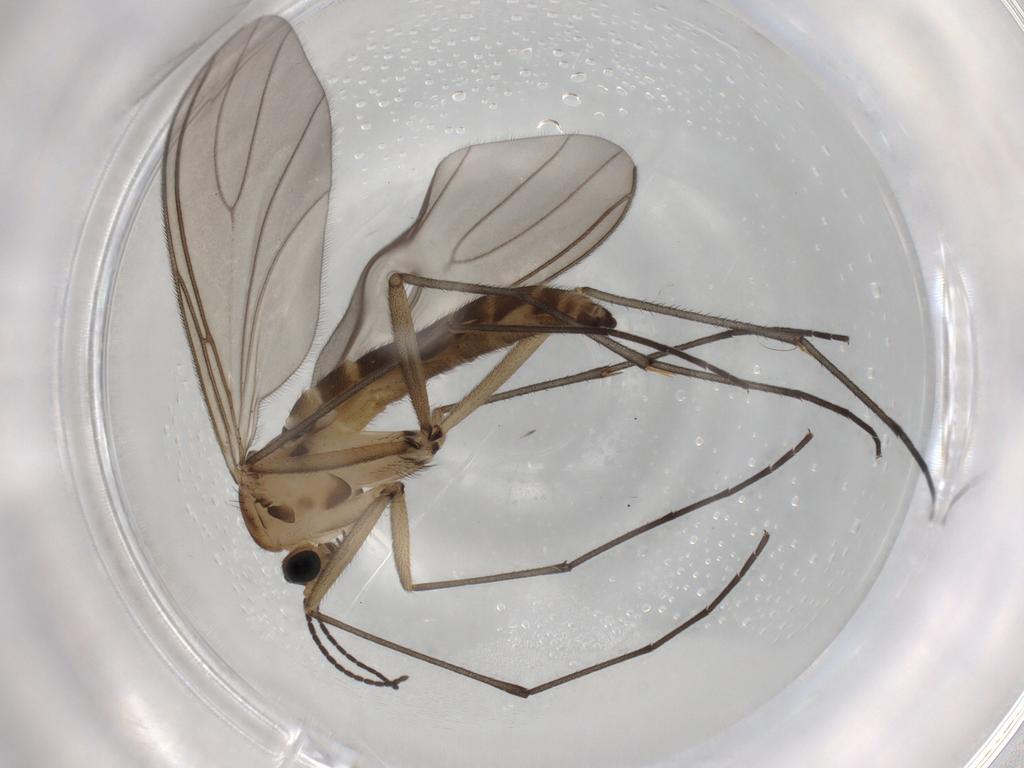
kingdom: Animalia
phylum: Arthropoda
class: Insecta
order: Diptera
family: Sciaridae
